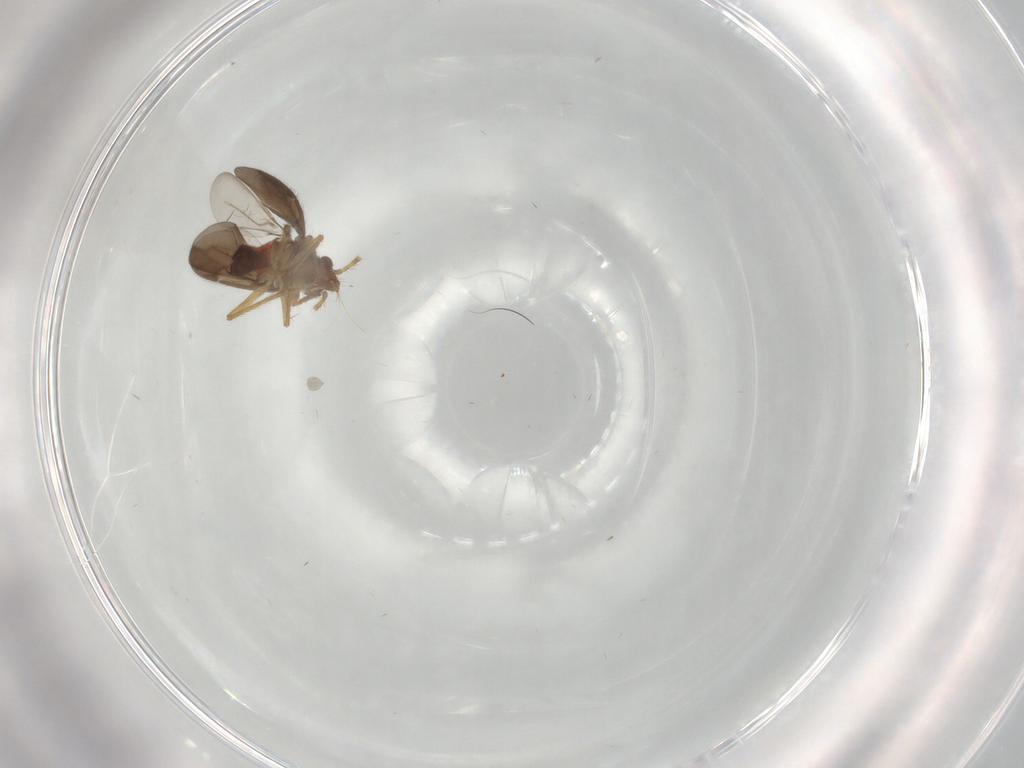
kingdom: Animalia
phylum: Arthropoda
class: Insecta
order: Hemiptera
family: Ceratocombidae
